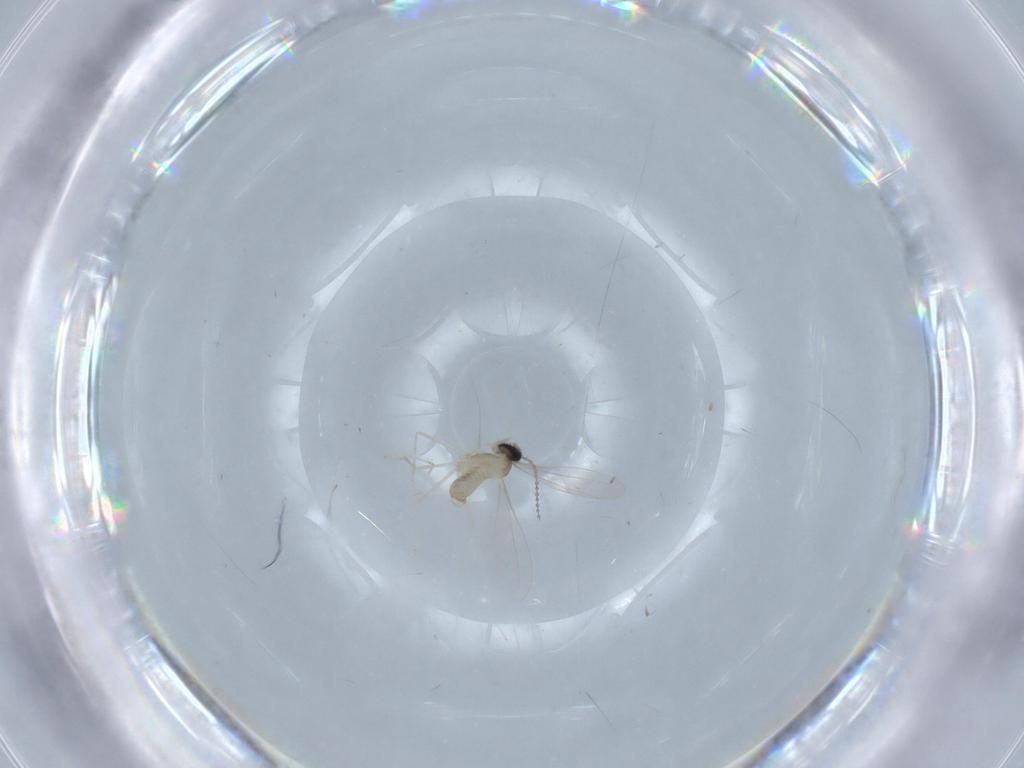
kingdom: Animalia
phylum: Arthropoda
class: Insecta
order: Diptera
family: Cecidomyiidae
